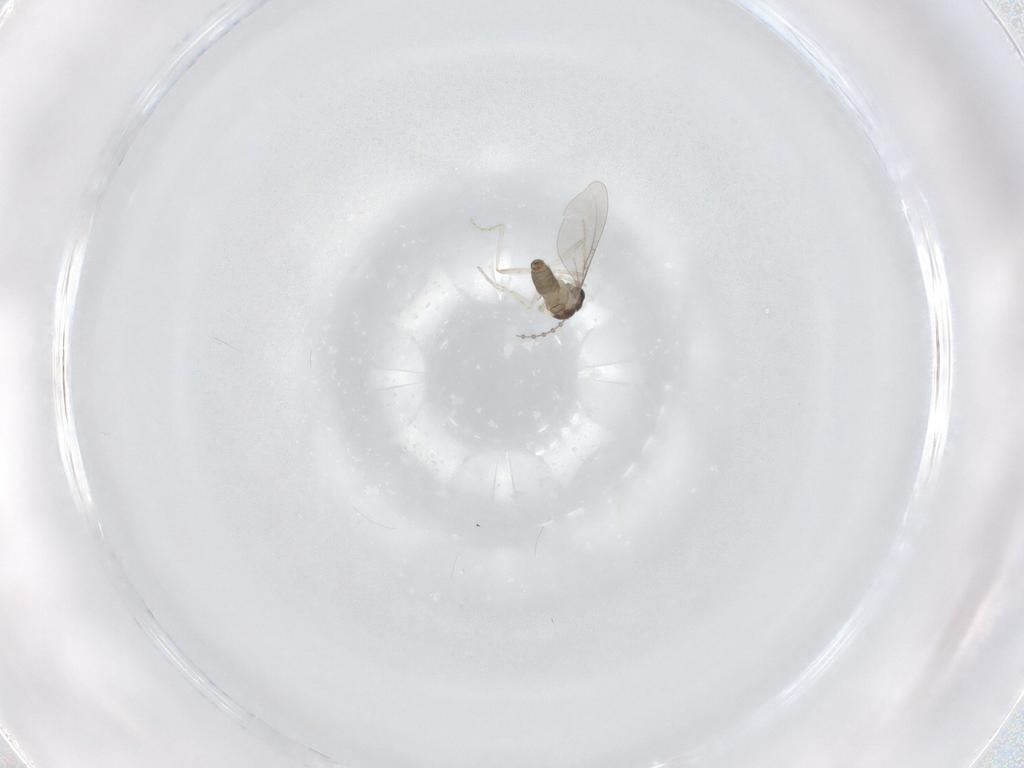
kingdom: Animalia
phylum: Arthropoda
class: Insecta
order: Diptera
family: Cecidomyiidae
